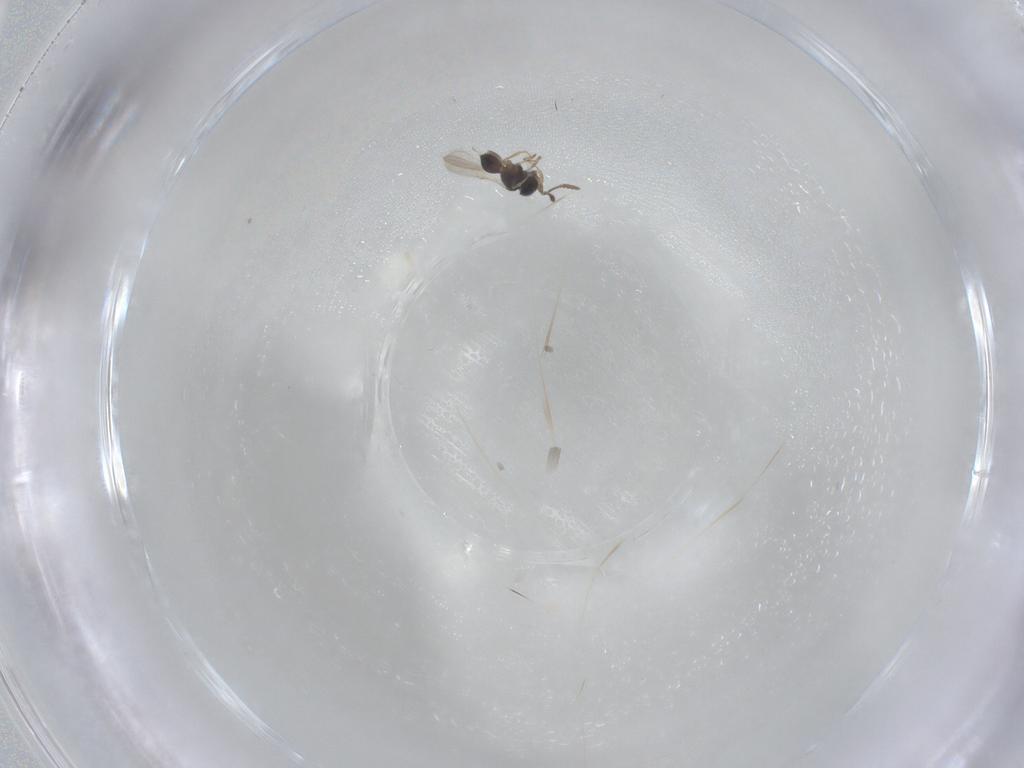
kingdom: Animalia
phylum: Arthropoda
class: Insecta
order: Hymenoptera
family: Scelionidae
